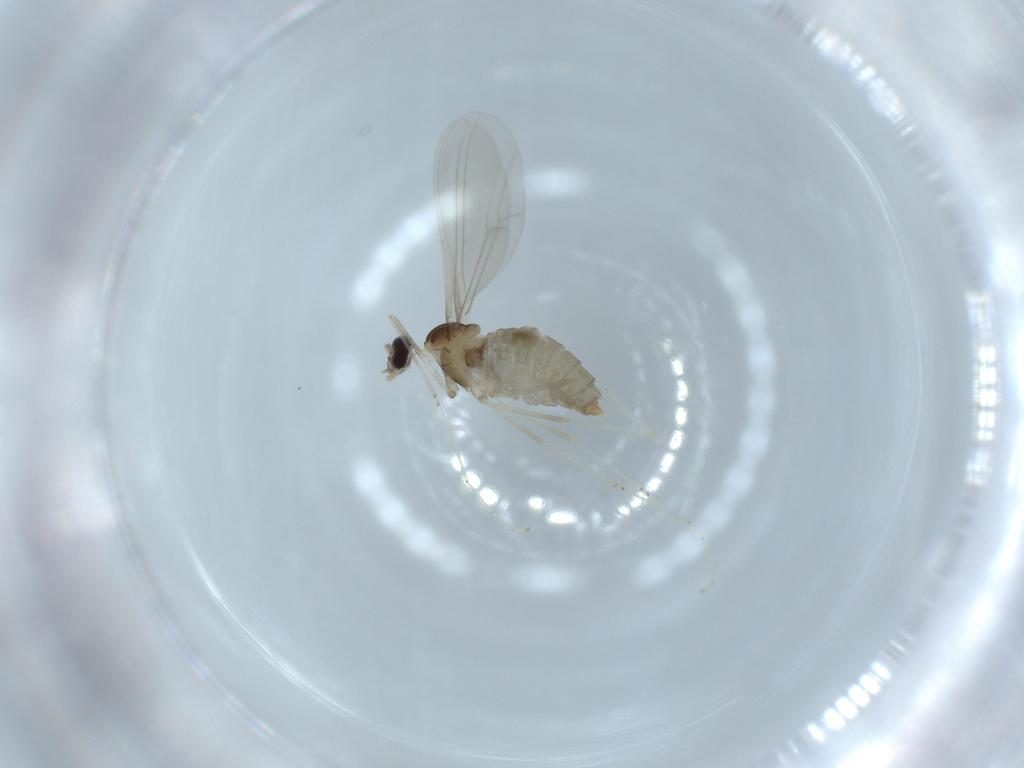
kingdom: Animalia
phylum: Arthropoda
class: Insecta
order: Diptera
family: Cecidomyiidae
